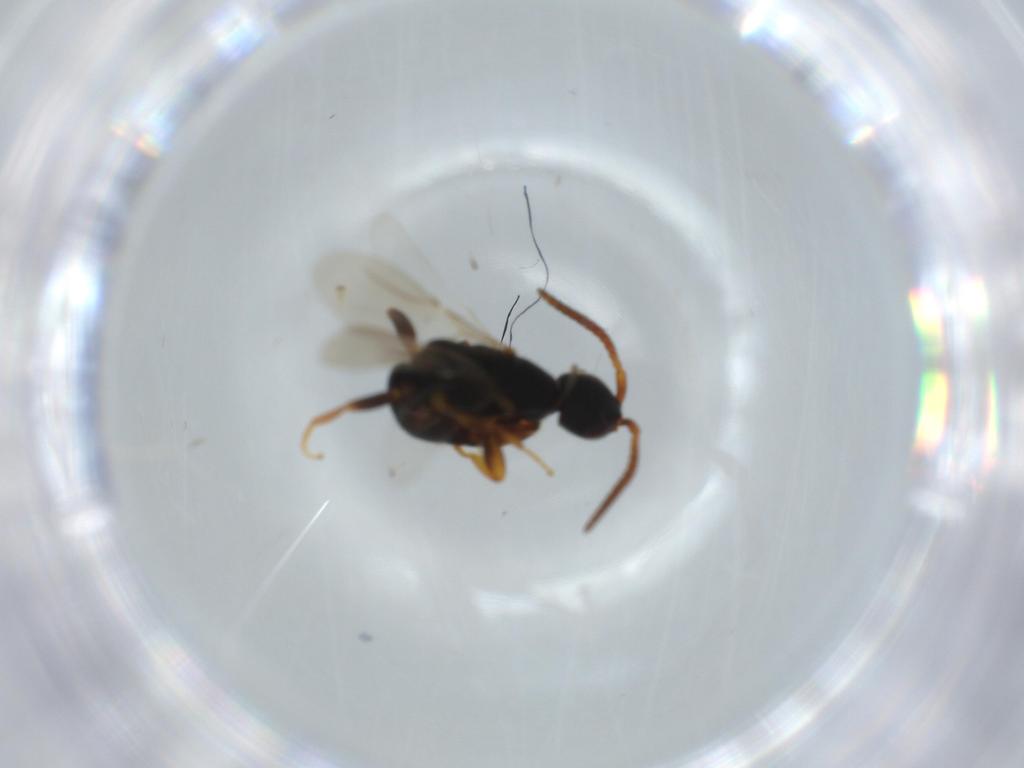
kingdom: Animalia
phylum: Arthropoda
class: Insecta
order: Hymenoptera
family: Bethylidae
